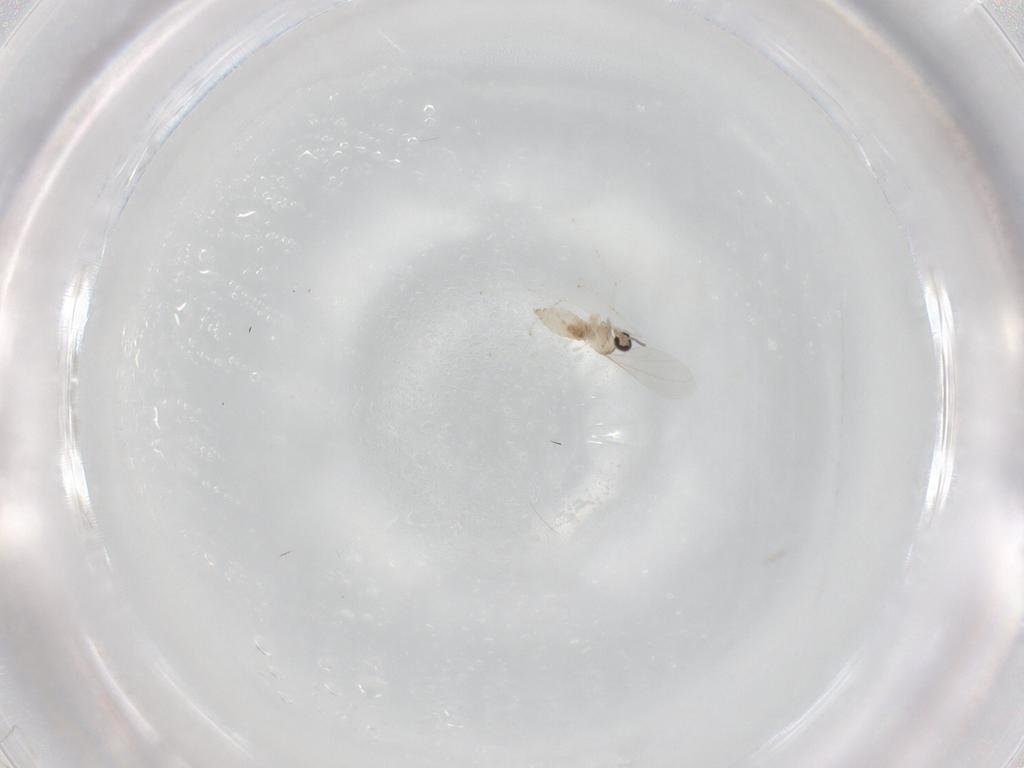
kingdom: Animalia
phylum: Arthropoda
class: Insecta
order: Diptera
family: Cecidomyiidae
